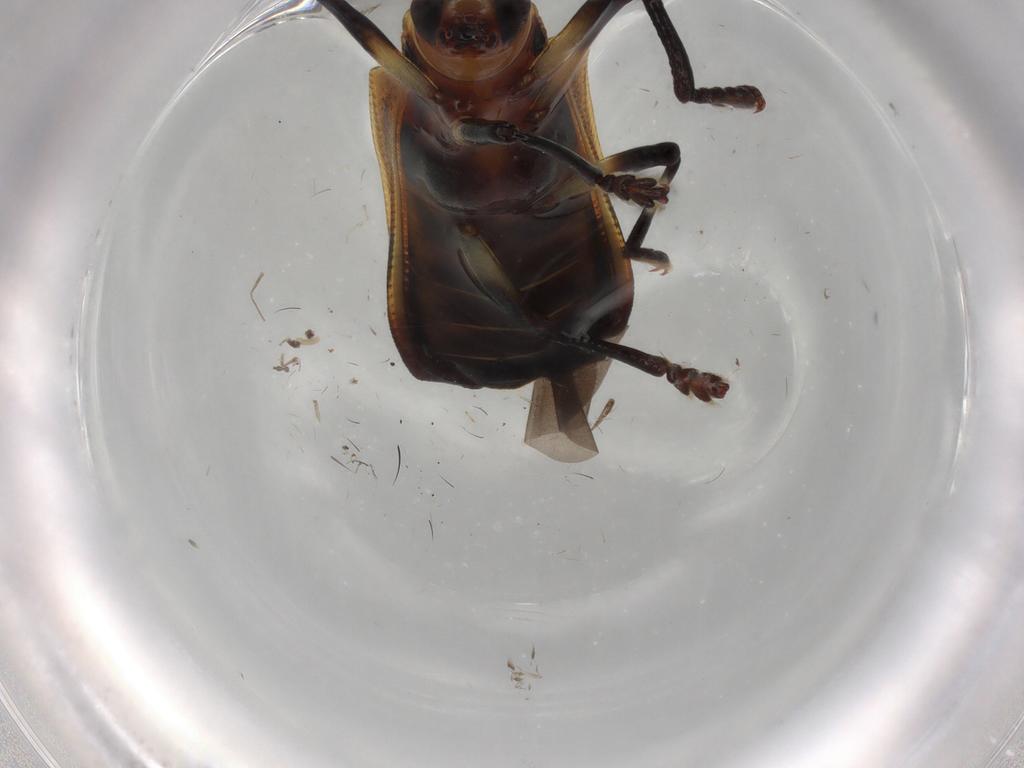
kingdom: Animalia
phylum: Arthropoda
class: Insecta
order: Coleoptera
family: Chrysomelidae
